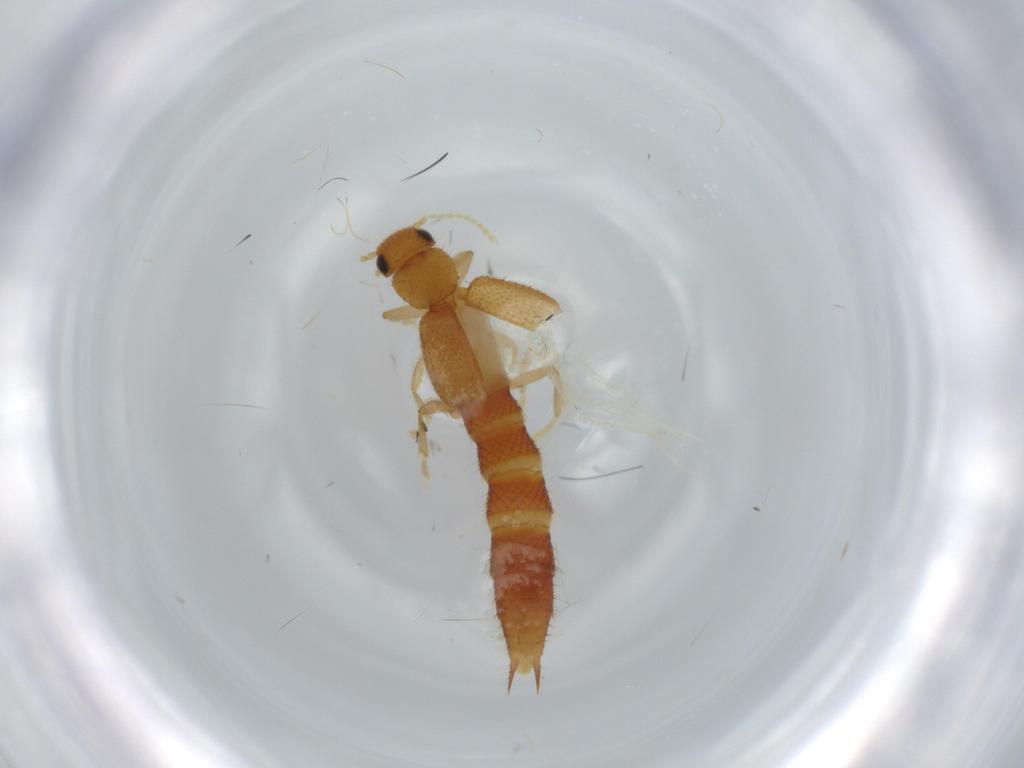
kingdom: Animalia
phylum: Arthropoda
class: Insecta
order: Coleoptera
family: Staphylinidae
